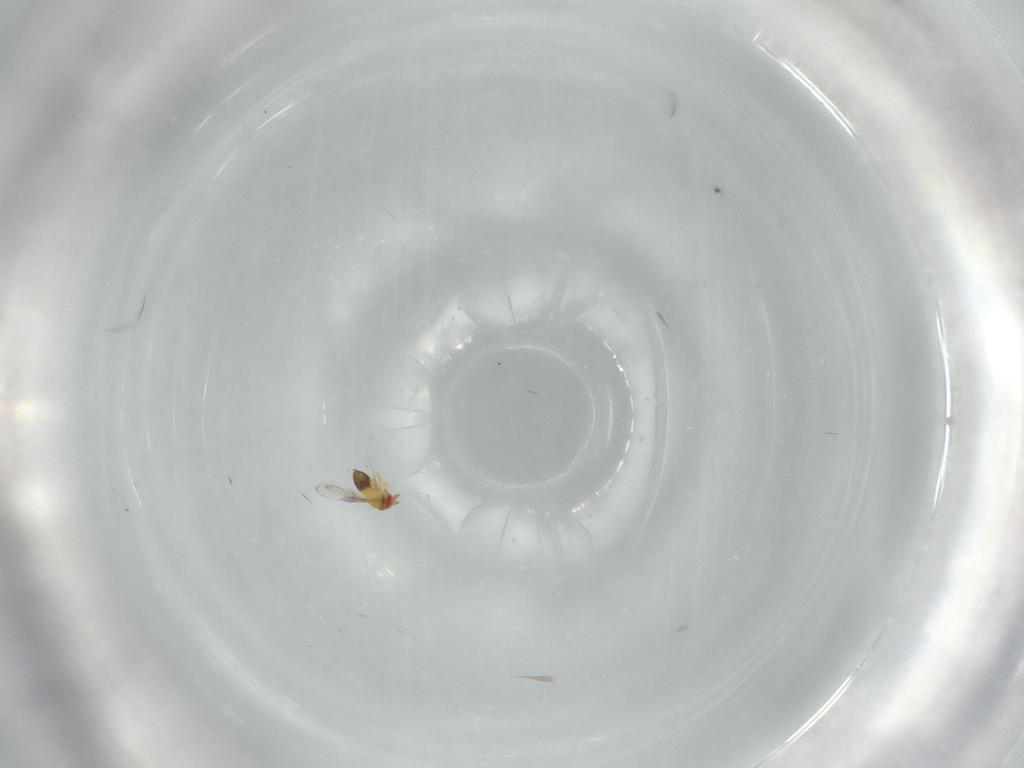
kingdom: Animalia
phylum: Arthropoda
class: Insecta
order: Hymenoptera
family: Trichogrammatidae
